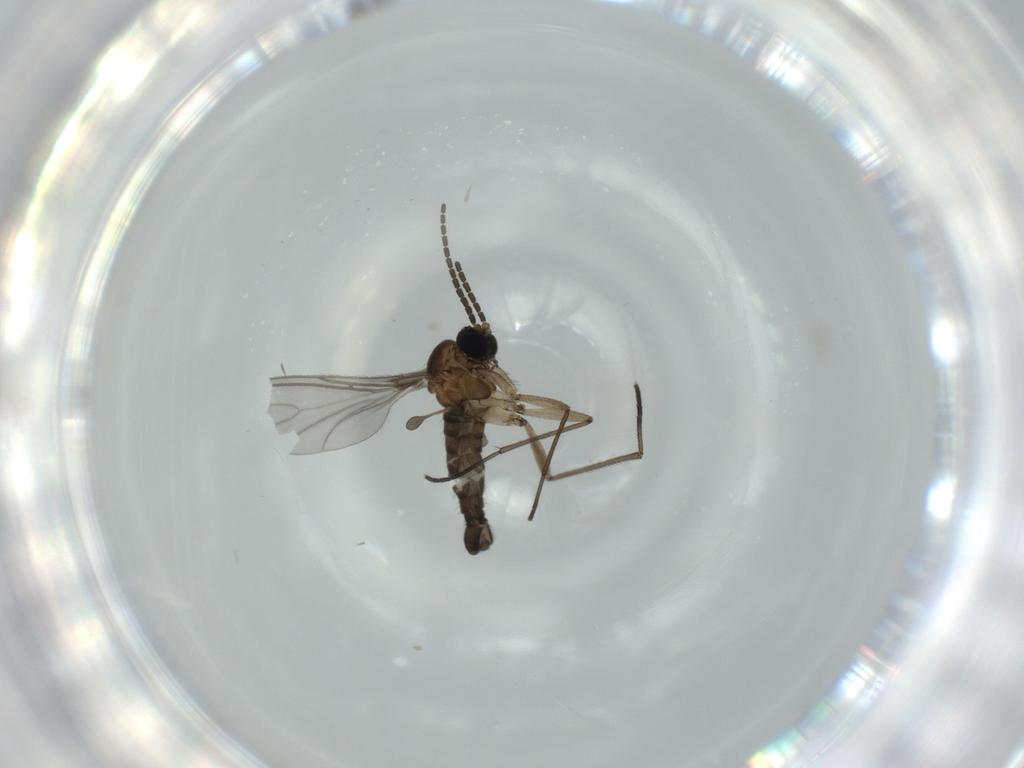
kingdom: Animalia
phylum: Arthropoda
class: Insecta
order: Diptera
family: Sciaridae
